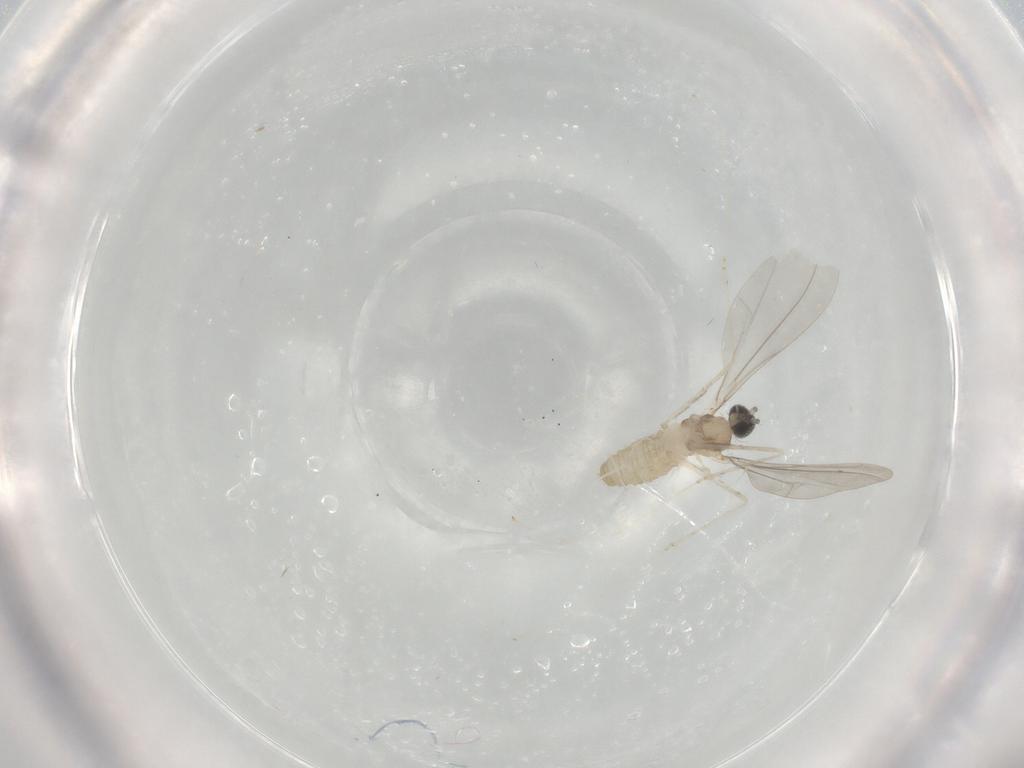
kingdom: Animalia
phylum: Arthropoda
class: Insecta
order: Diptera
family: Cecidomyiidae
